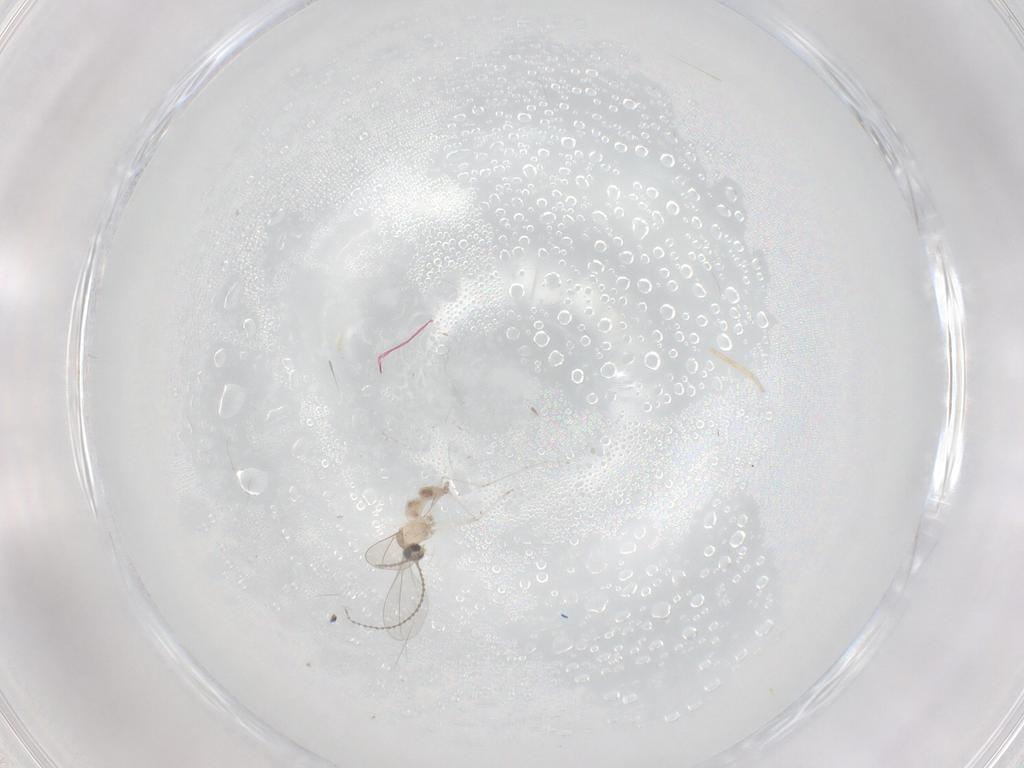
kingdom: Animalia
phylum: Arthropoda
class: Insecta
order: Diptera
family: Chironomidae
